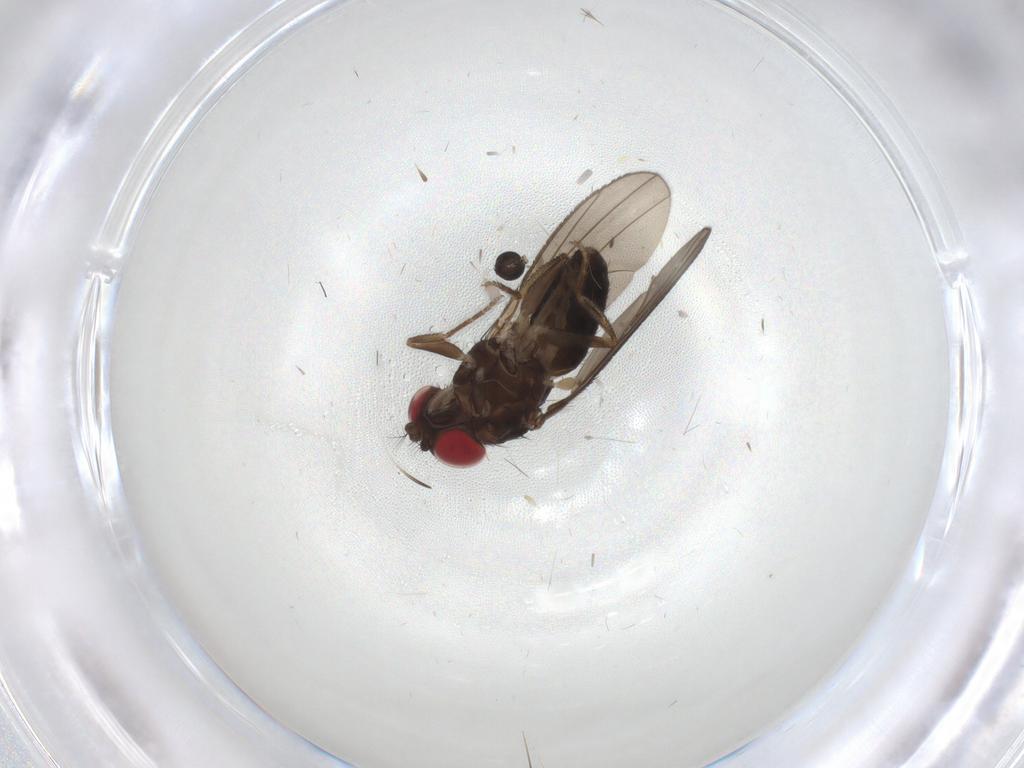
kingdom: Animalia
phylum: Arthropoda
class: Insecta
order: Diptera
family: Drosophilidae
